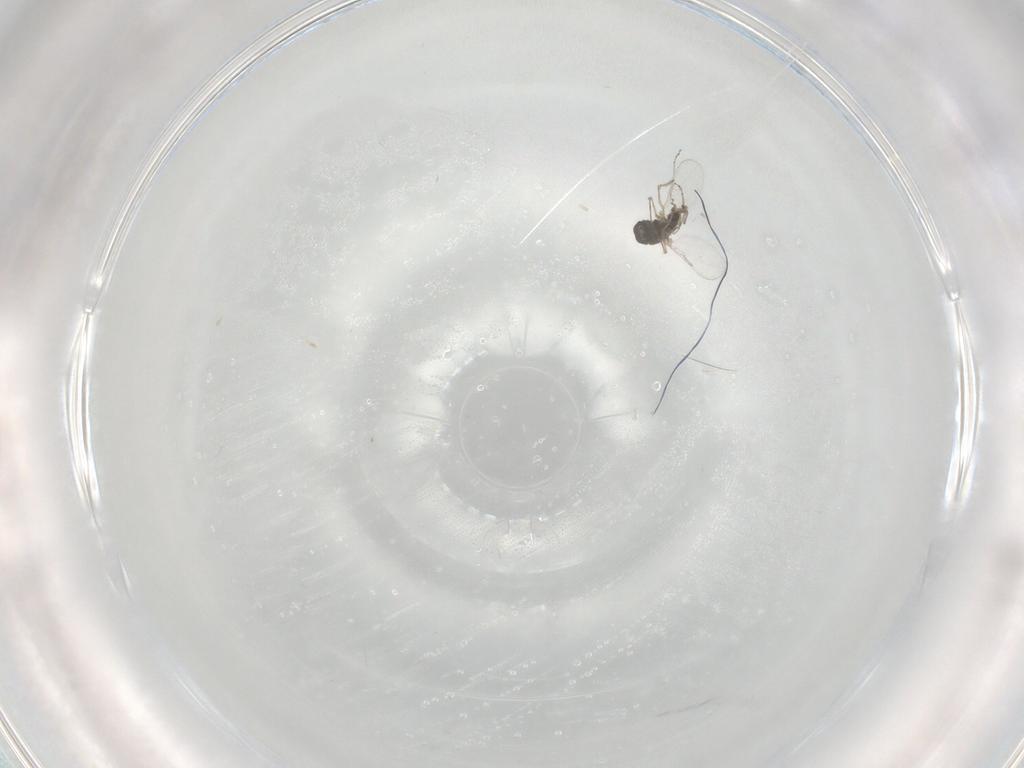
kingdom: Animalia
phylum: Arthropoda
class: Insecta
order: Diptera
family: Ceratopogonidae
